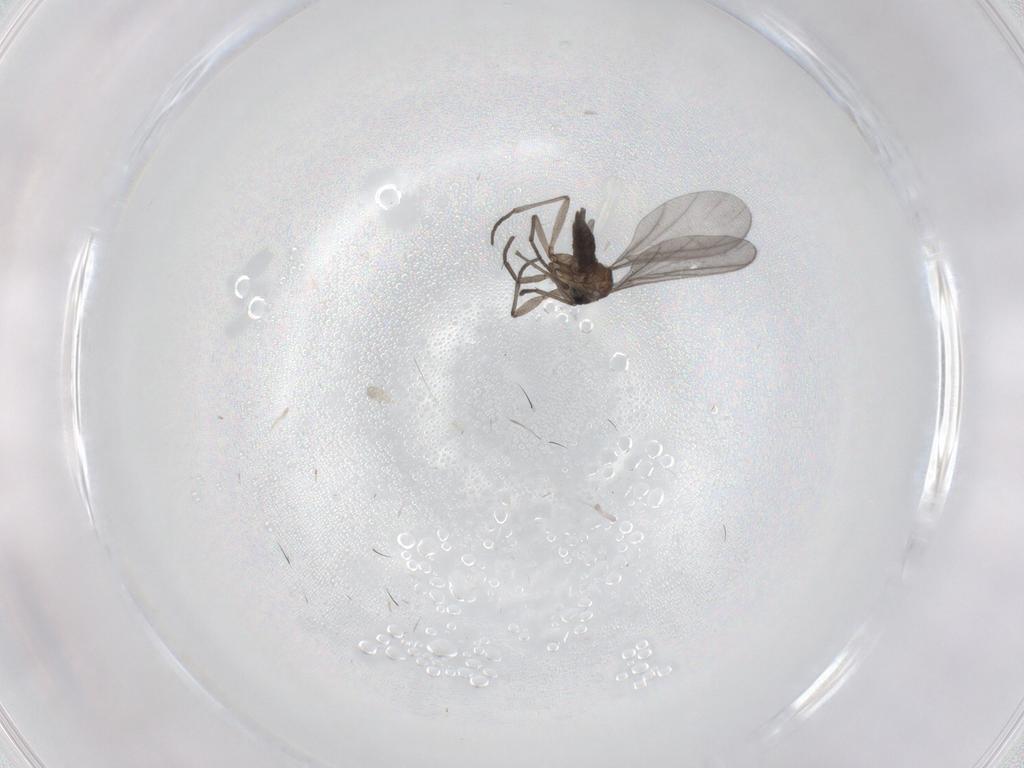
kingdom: Animalia
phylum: Arthropoda
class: Insecta
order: Diptera
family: Sciaridae
